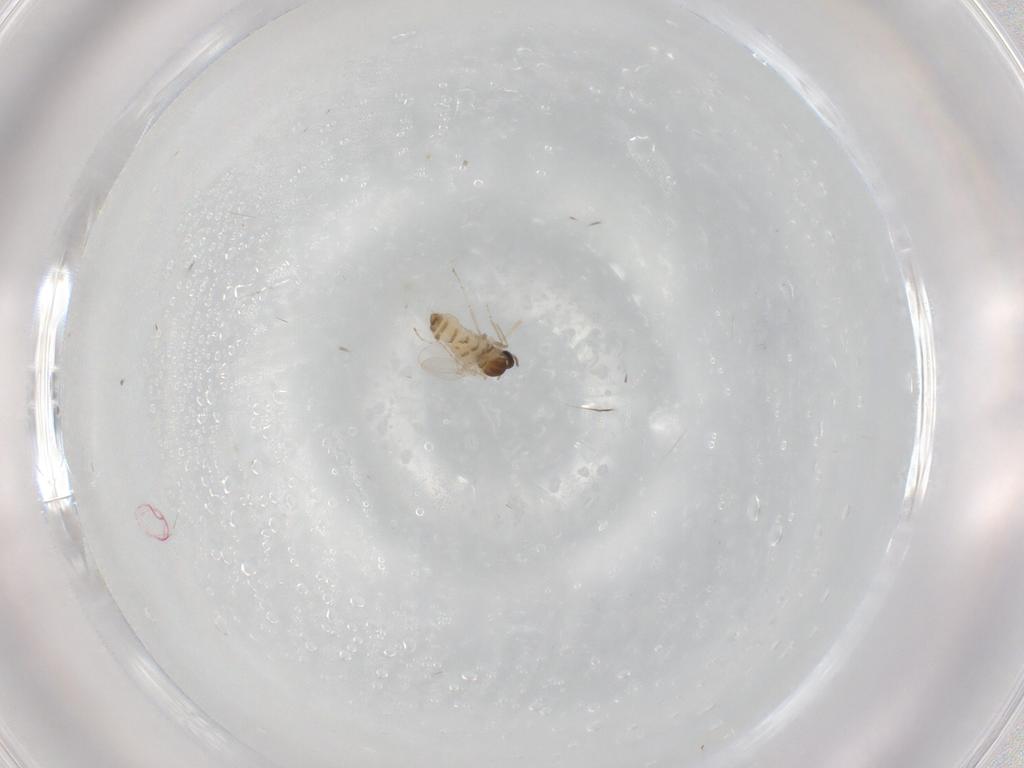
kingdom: Animalia
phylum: Arthropoda
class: Insecta
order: Diptera
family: Cecidomyiidae
